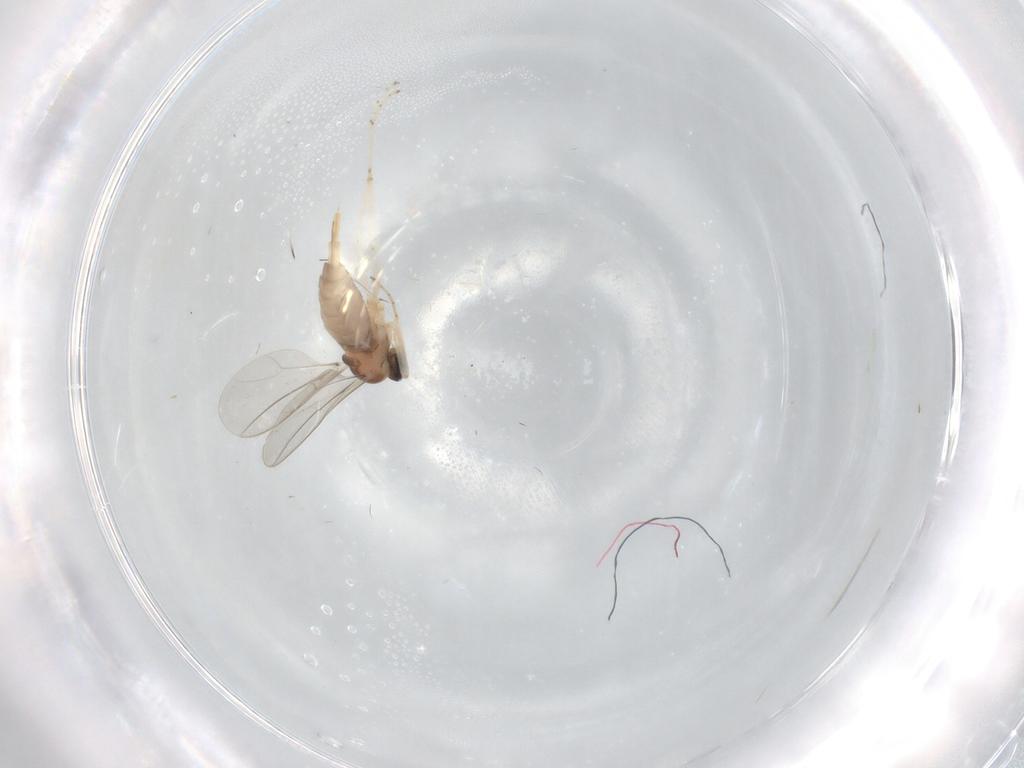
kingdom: Animalia
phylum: Arthropoda
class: Insecta
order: Diptera
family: Cecidomyiidae
